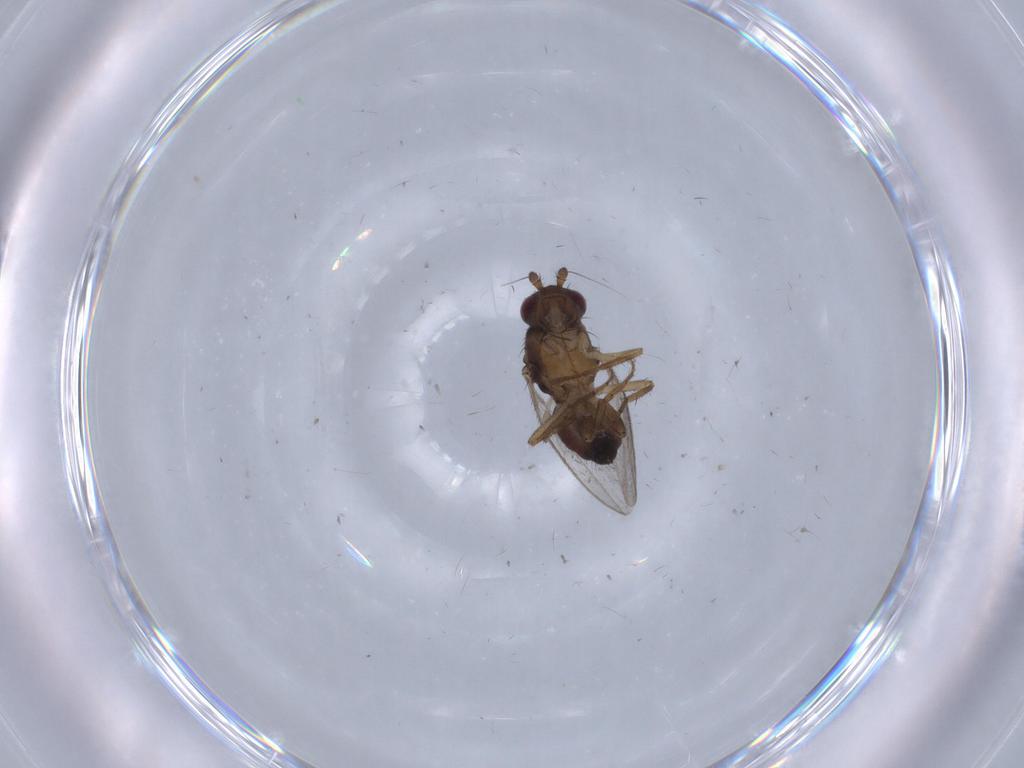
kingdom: Animalia
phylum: Arthropoda
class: Insecta
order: Diptera
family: Sphaeroceridae
